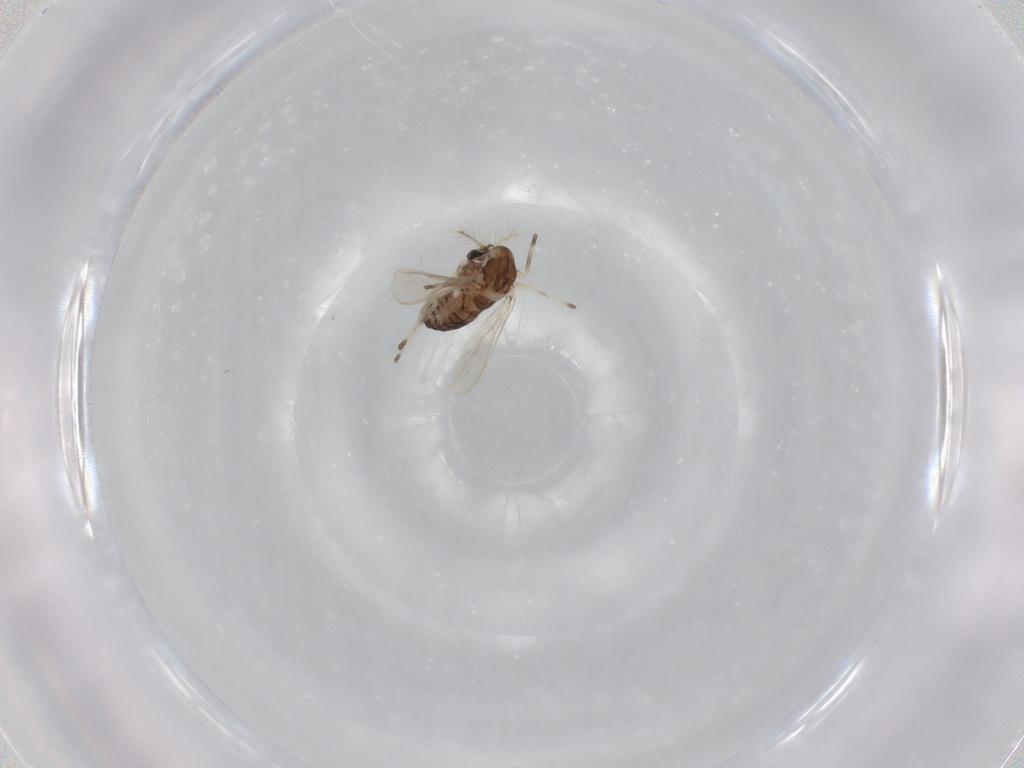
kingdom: Animalia
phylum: Arthropoda
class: Insecta
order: Diptera
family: Chironomidae
